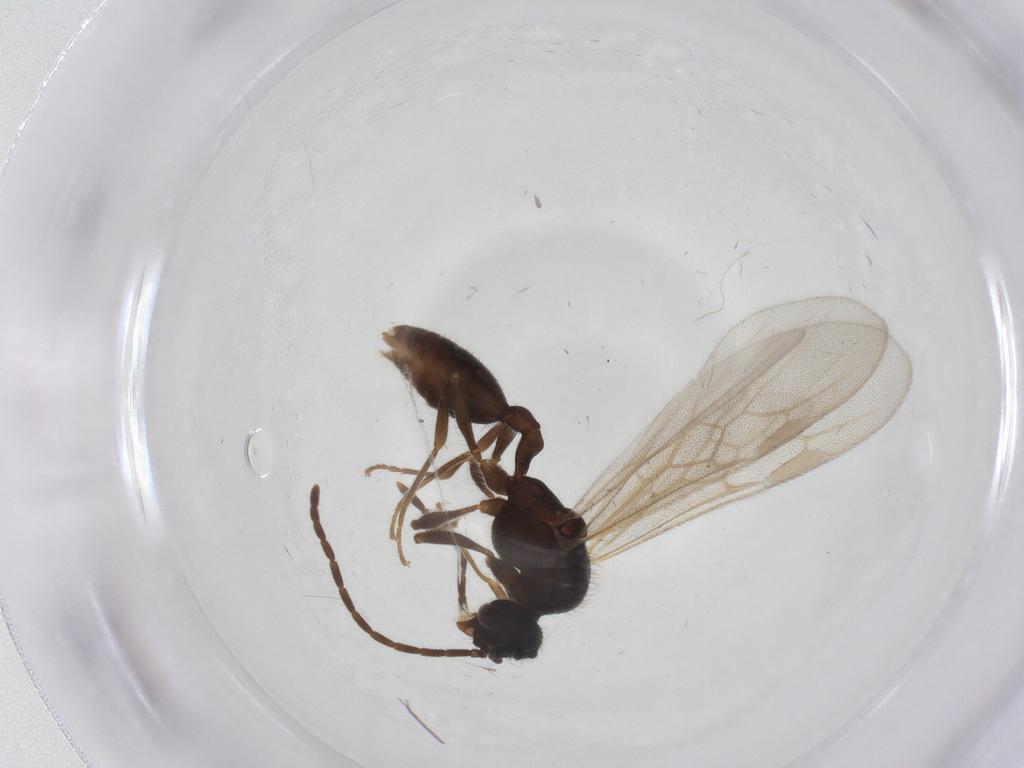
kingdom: Animalia
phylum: Arthropoda
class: Insecta
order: Hymenoptera
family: Formicidae
